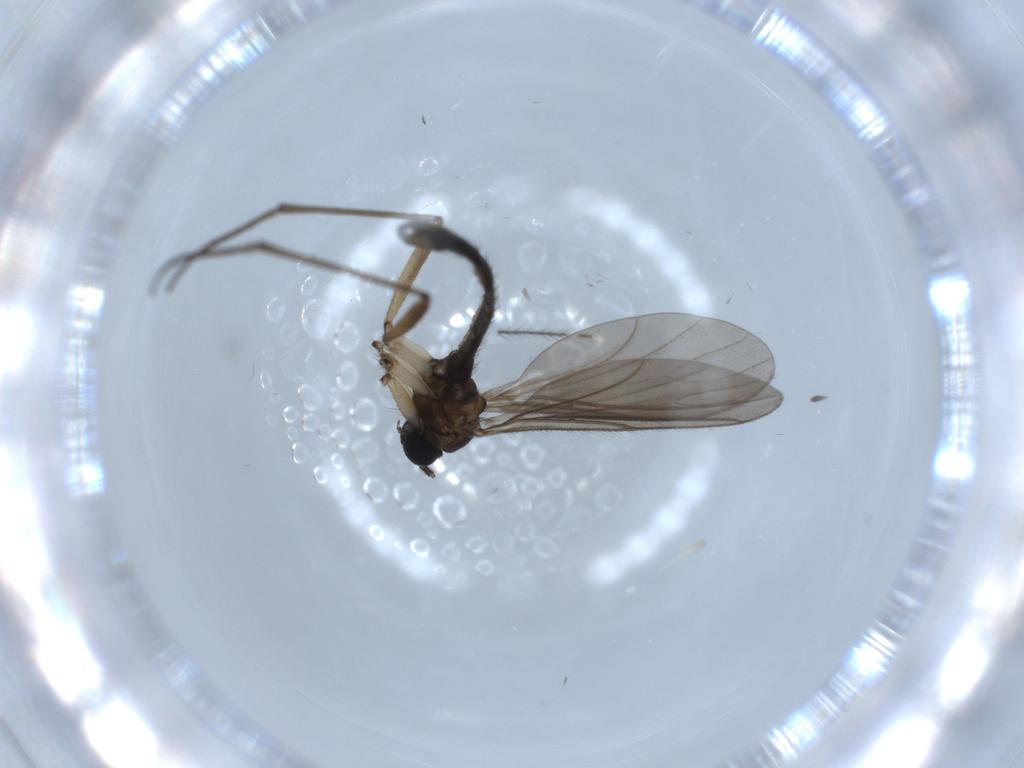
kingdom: Animalia
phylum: Arthropoda
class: Insecta
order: Diptera
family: Sciaridae
